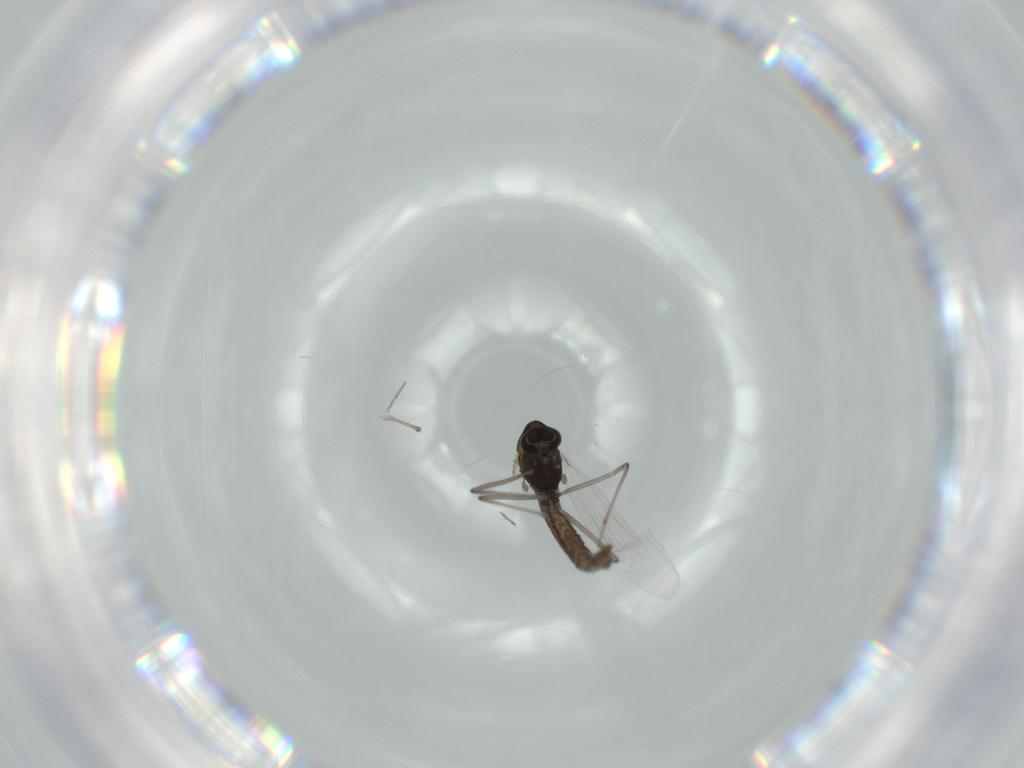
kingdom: Animalia
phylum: Arthropoda
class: Insecta
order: Diptera
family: Chironomidae
